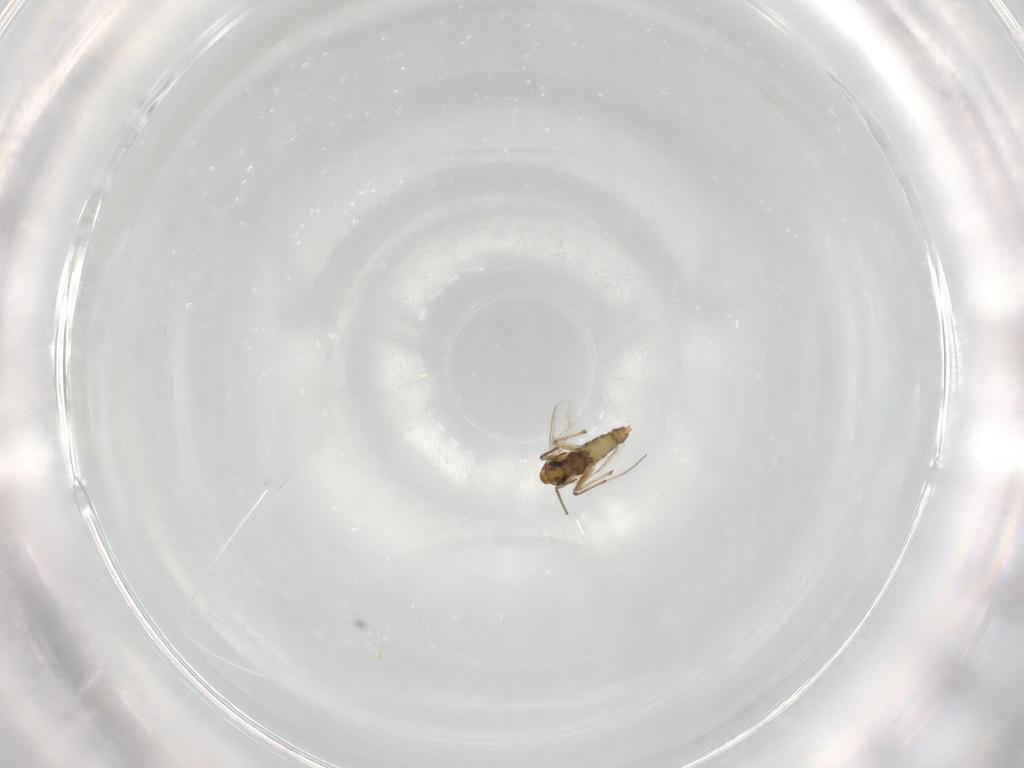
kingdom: Animalia
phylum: Arthropoda
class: Insecta
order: Diptera
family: Chironomidae
